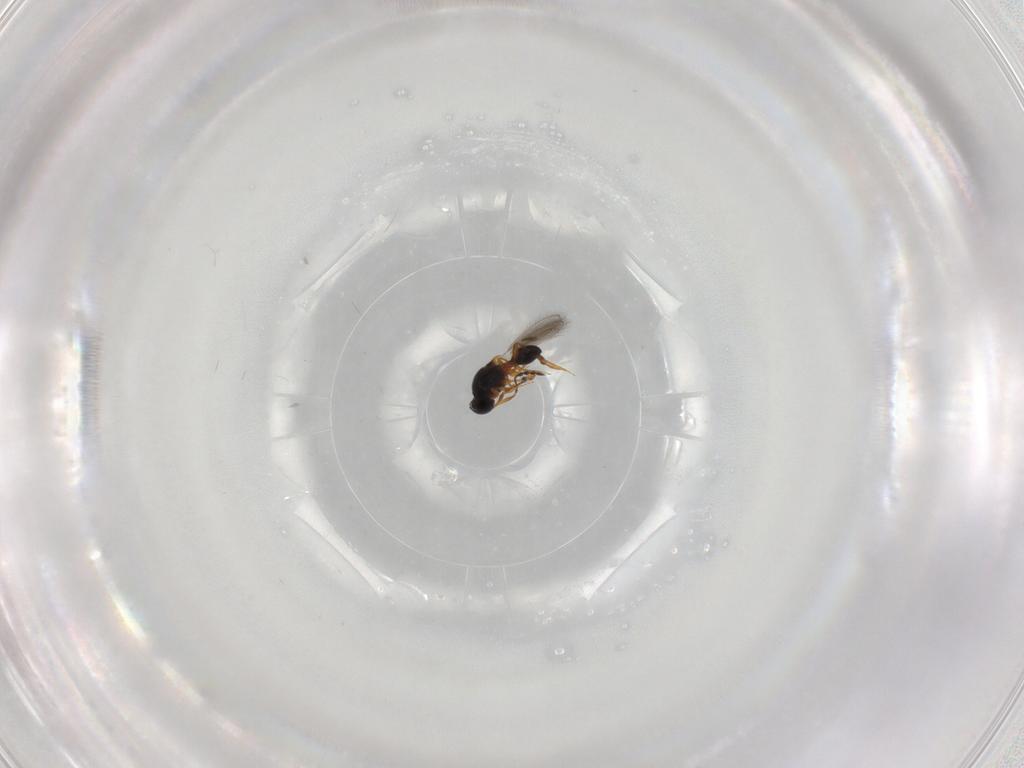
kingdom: Animalia
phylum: Arthropoda
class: Insecta
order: Hymenoptera
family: Platygastridae
